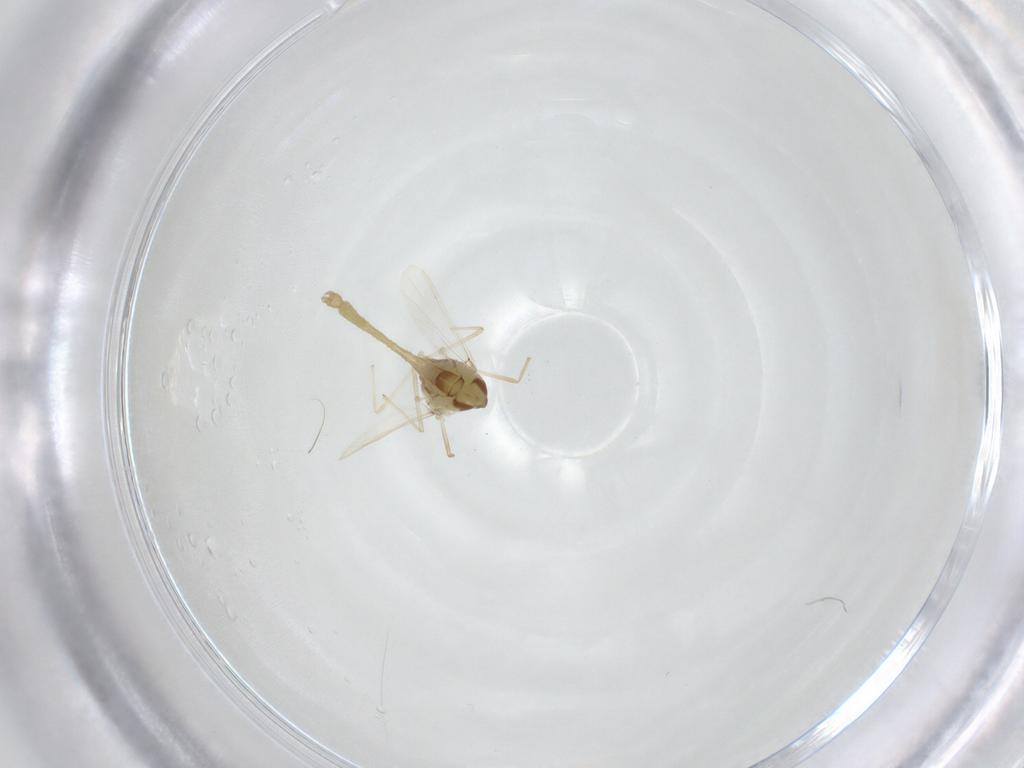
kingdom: Animalia
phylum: Arthropoda
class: Insecta
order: Diptera
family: Chironomidae
